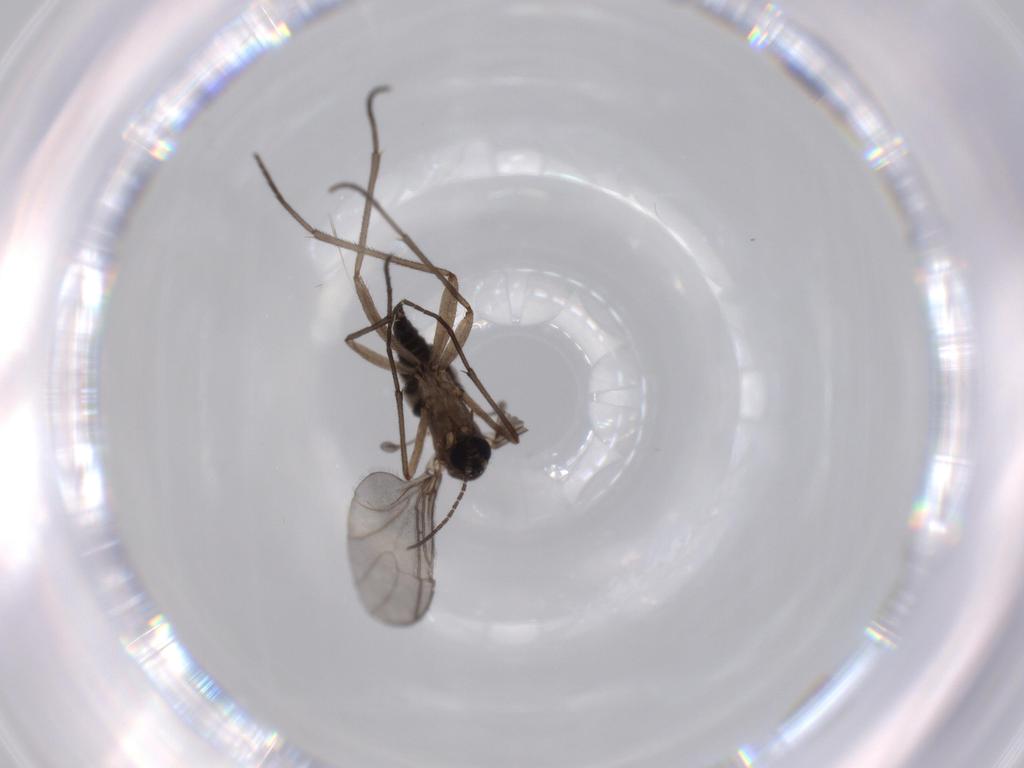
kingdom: Animalia
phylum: Arthropoda
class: Insecta
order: Diptera
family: Sciaridae
